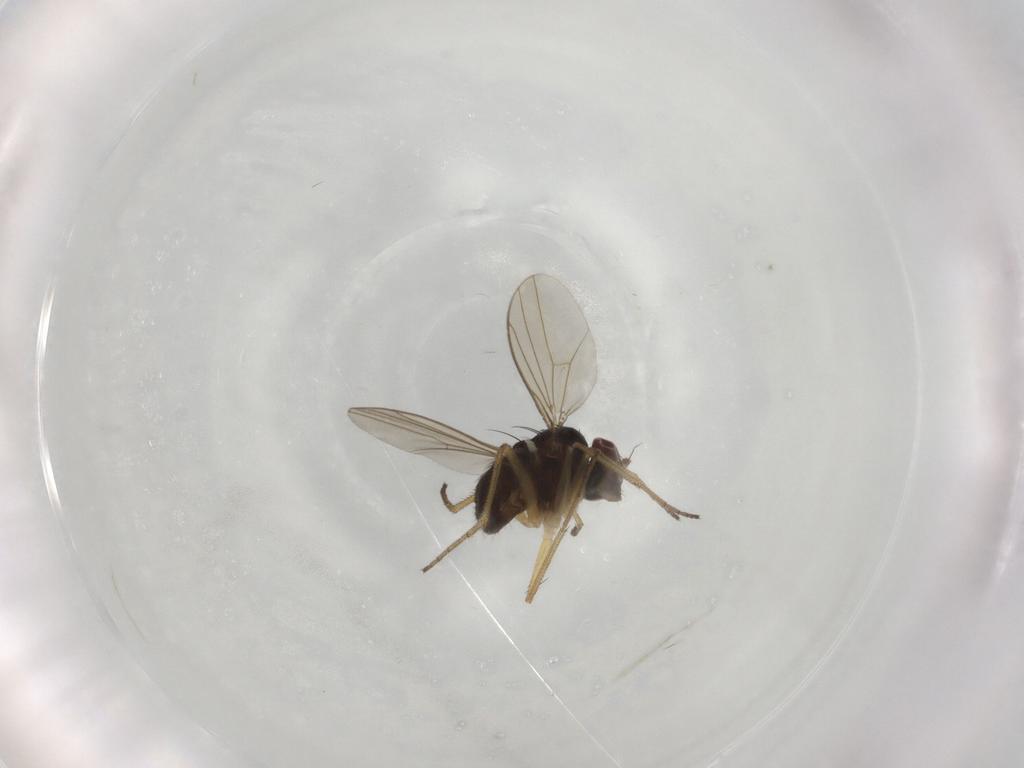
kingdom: Animalia
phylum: Arthropoda
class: Insecta
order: Diptera
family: Dolichopodidae
